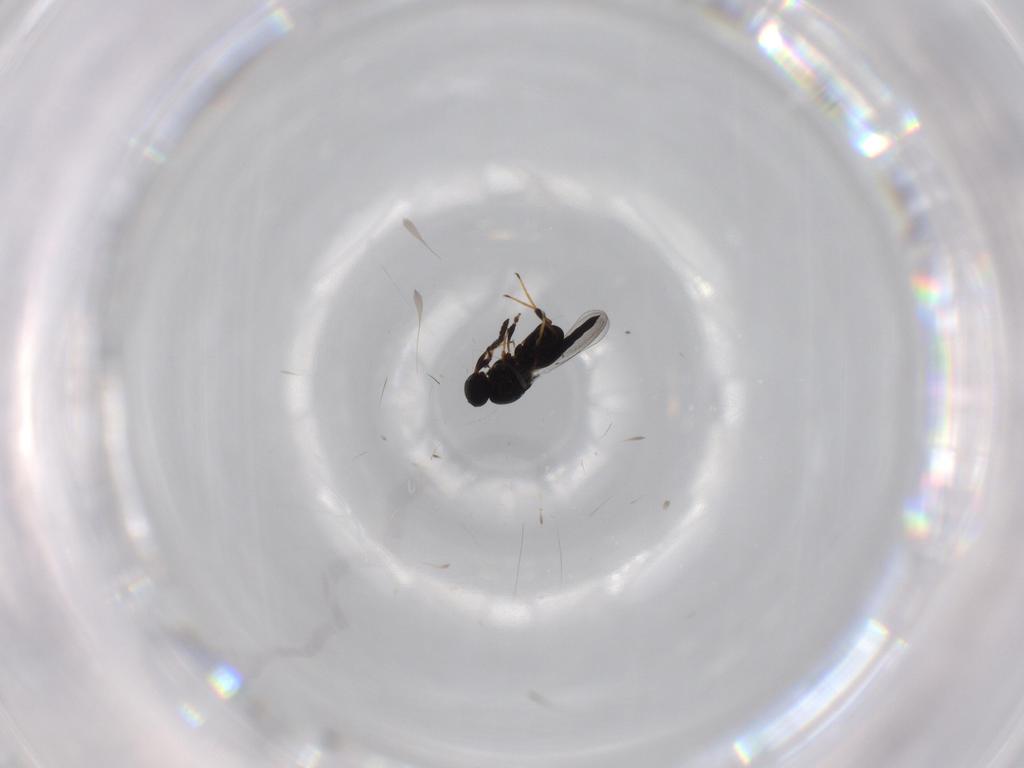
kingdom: Animalia
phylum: Arthropoda
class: Insecta
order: Hymenoptera
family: Platygastridae
